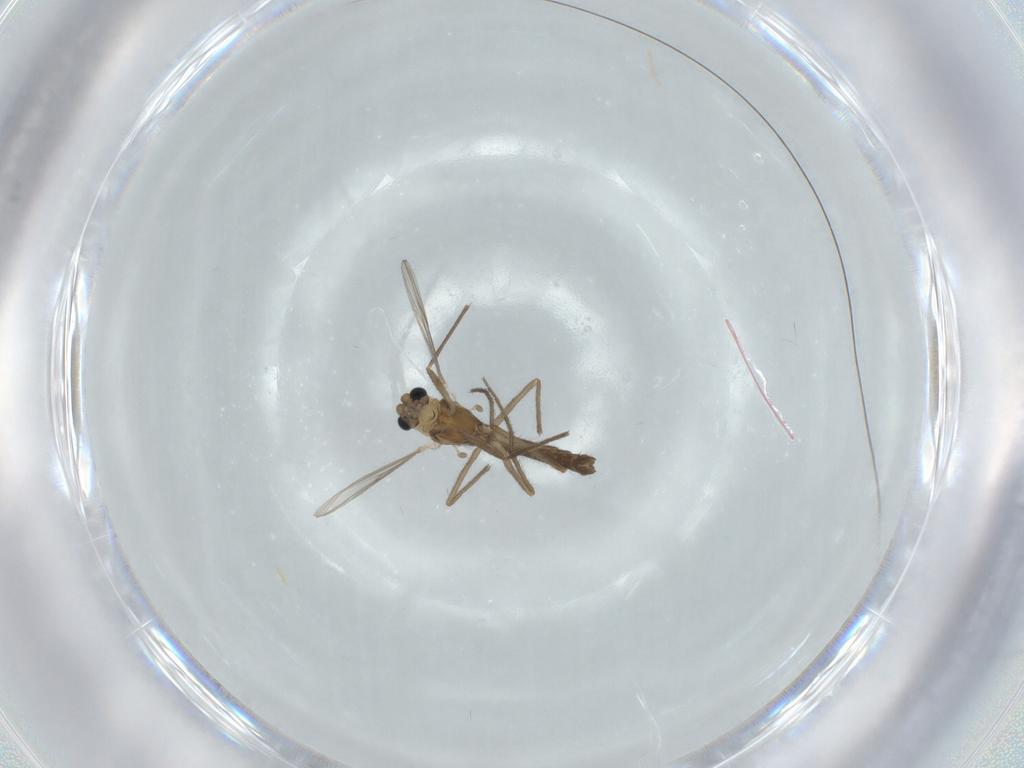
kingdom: Animalia
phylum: Arthropoda
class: Insecta
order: Diptera
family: Chironomidae
